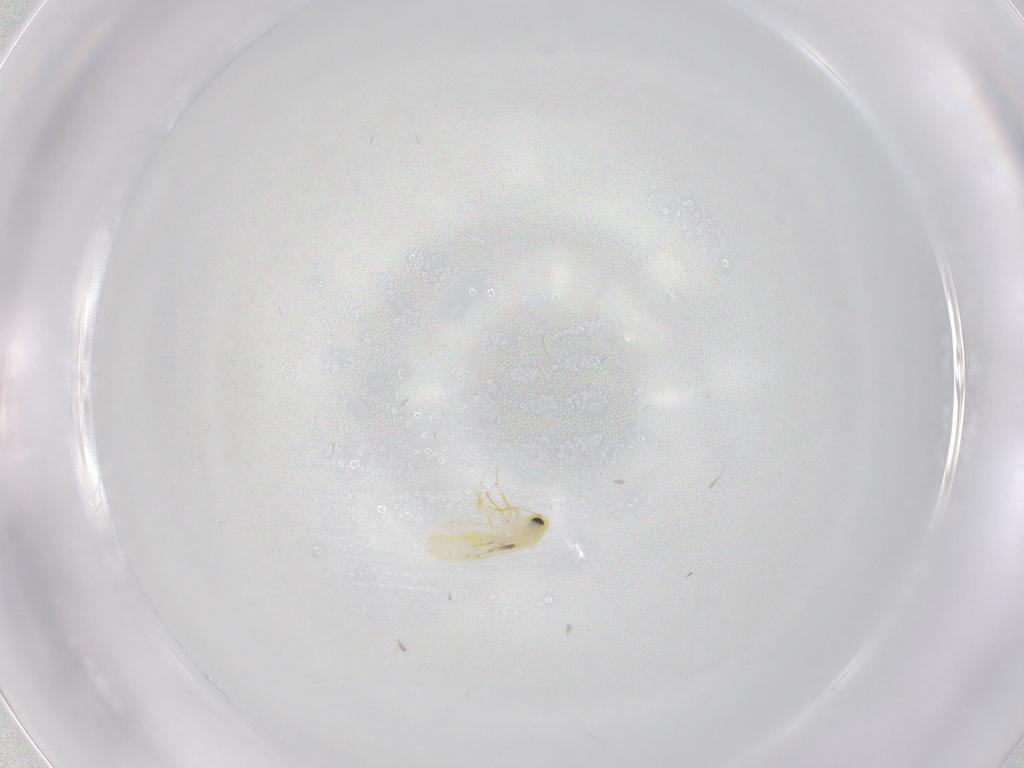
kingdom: Animalia
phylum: Arthropoda
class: Insecta
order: Hemiptera
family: Aleyrodidae
